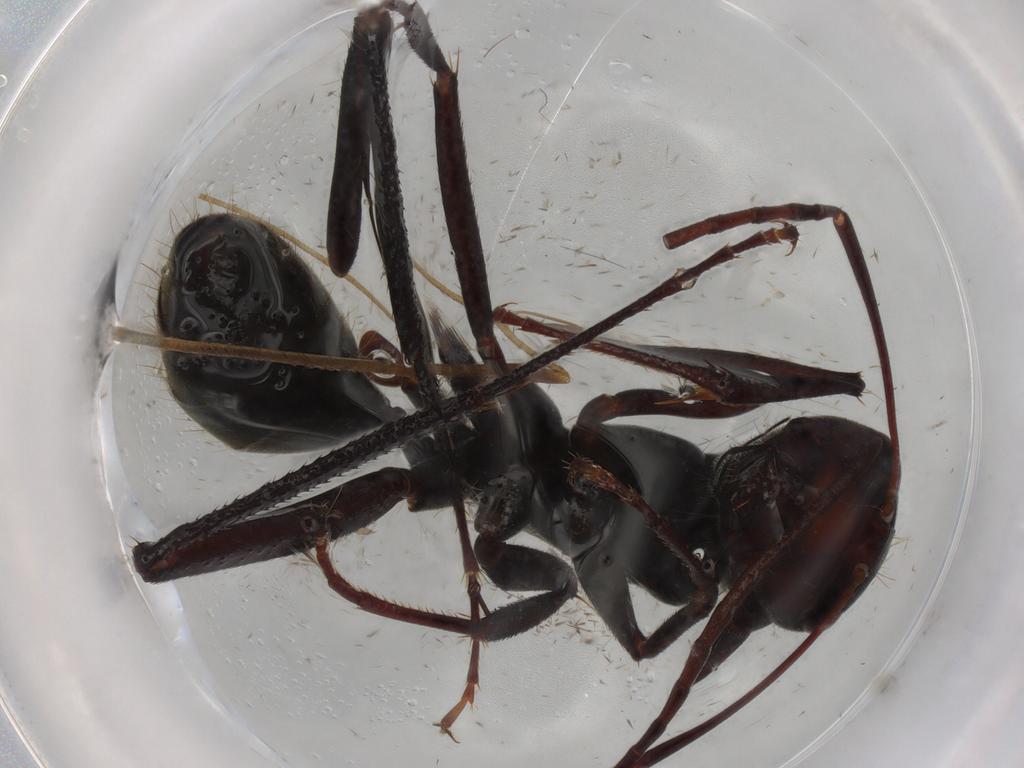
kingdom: Animalia
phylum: Arthropoda
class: Insecta
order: Hymenoptera
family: Formicidae
